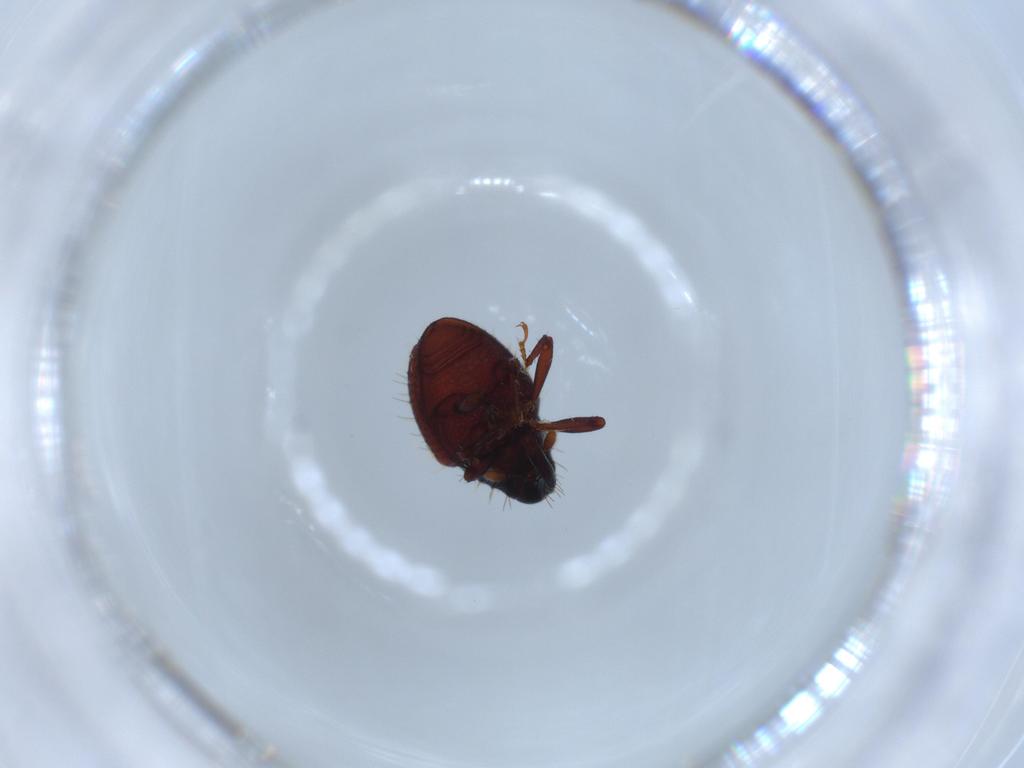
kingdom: Animalia
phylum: Arthropoda
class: Insecta
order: Coleoptera
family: Curculionidae
